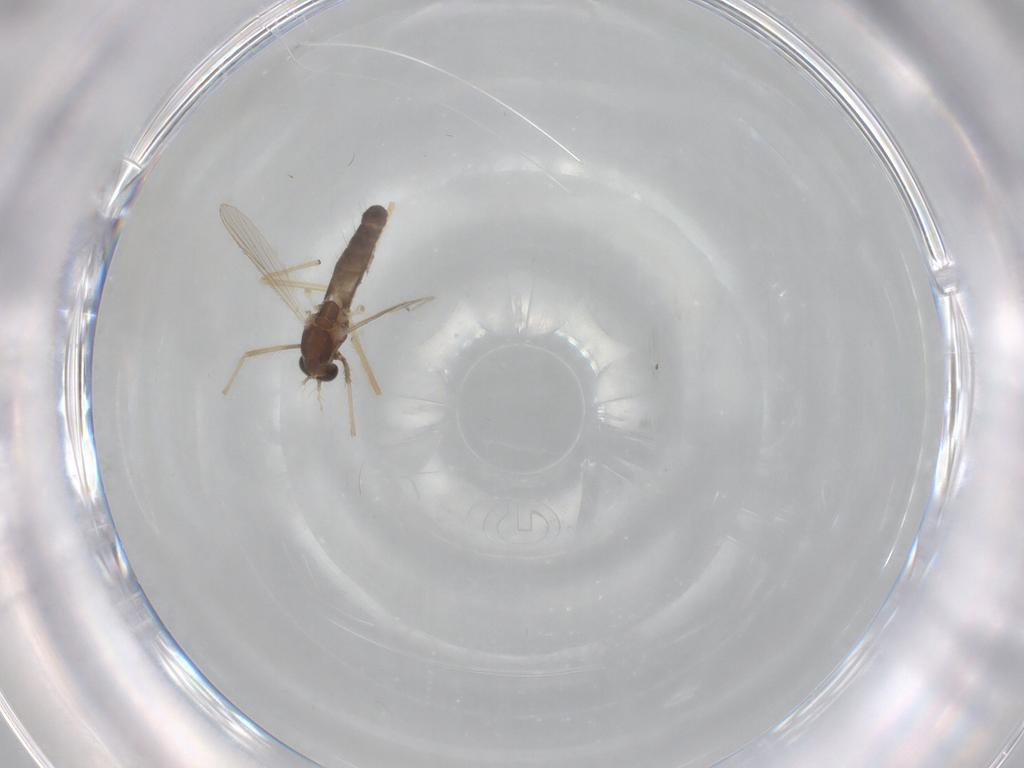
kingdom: Animalia
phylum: Arthropoda
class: Insecta
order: Diptera
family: Chironomidae
